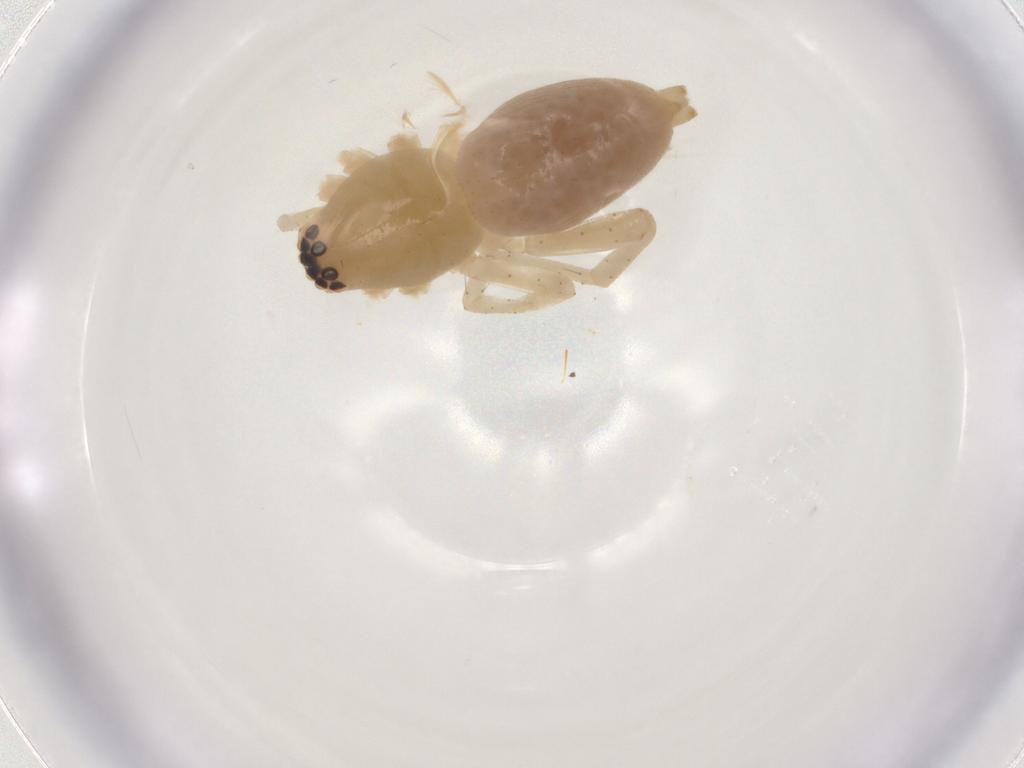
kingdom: Animalia
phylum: Arthropoda
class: Arachnida
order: Araneae
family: Clubionidae
